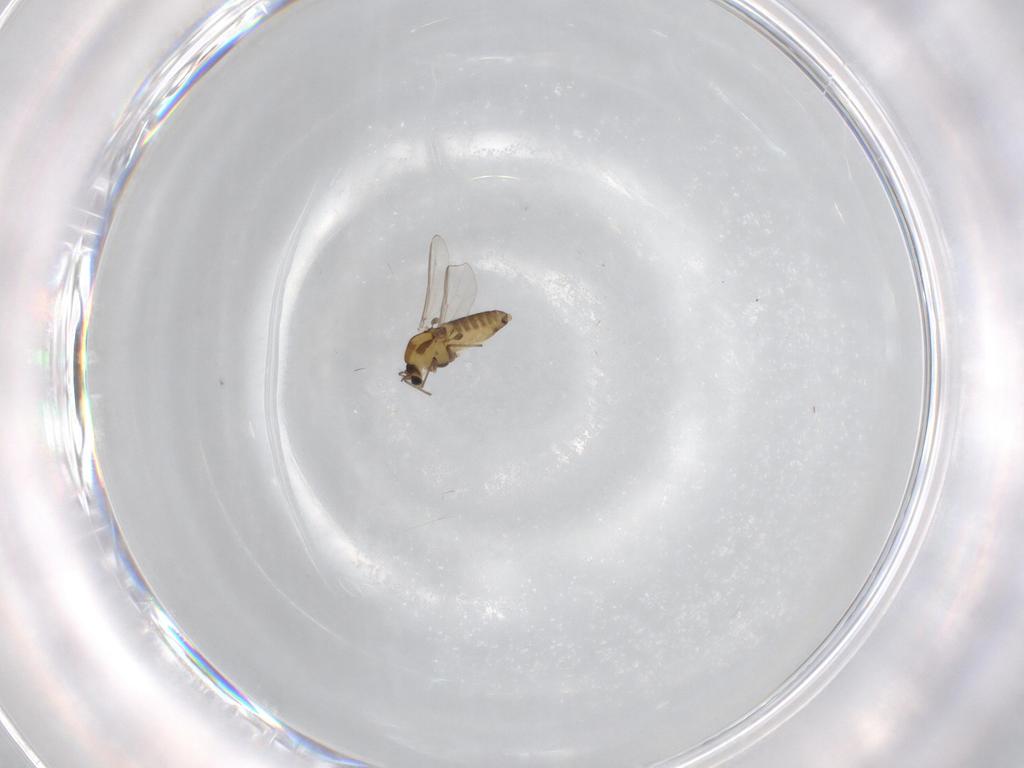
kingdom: Animalia
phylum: Arthropoda
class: Insecta
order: Diptera
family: Chironomidae
